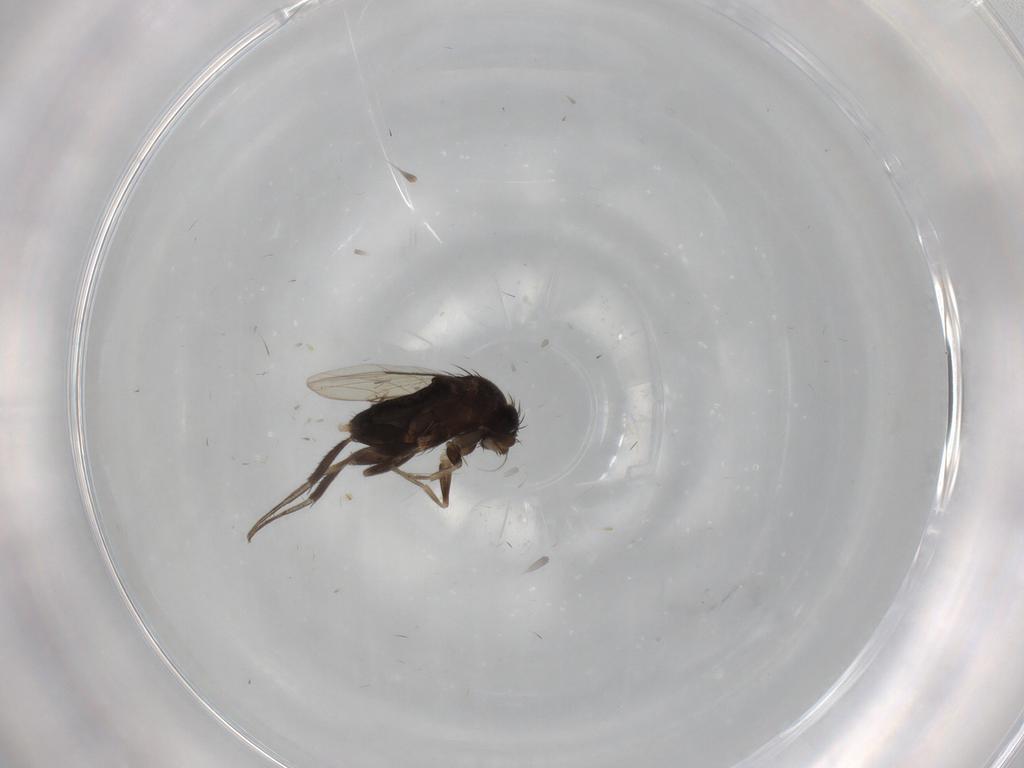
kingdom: Animalia
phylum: Arthropoda
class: Insecta
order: Diptera
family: Phoridae
